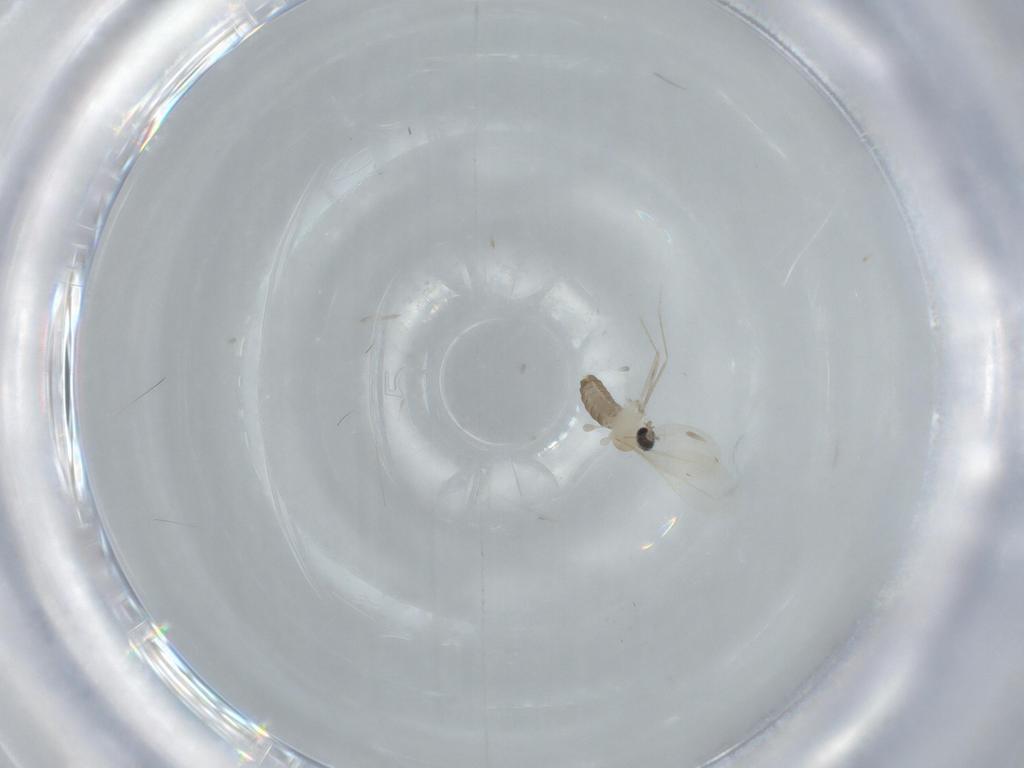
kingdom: Animalia
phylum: Arthropoda
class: Insecta
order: Diptera
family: Cecidomyiidae
